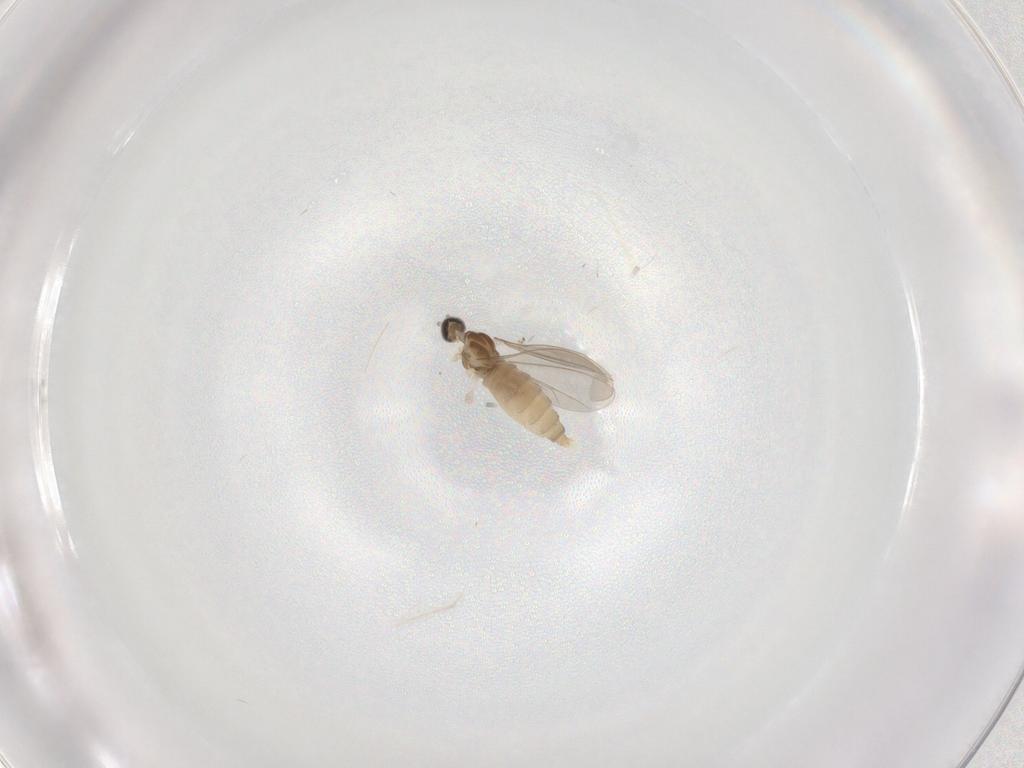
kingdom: Animalia
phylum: Arthropoda
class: Insecta
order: Diptera
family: Cecidomyiidae
